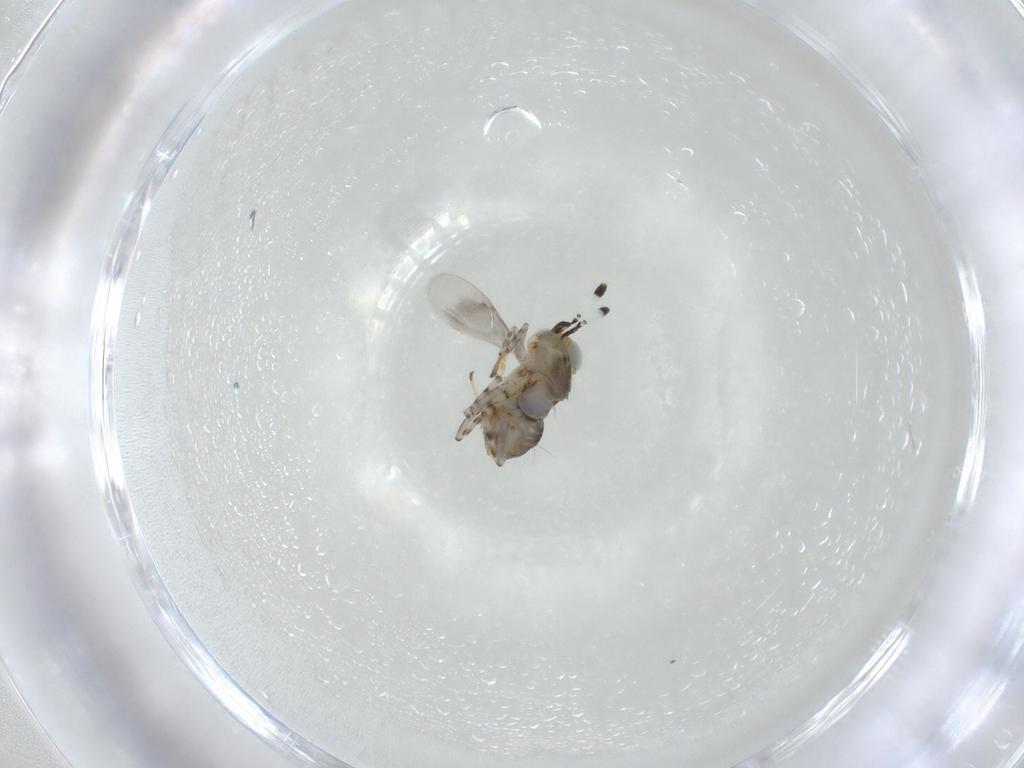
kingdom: Animalia
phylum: Arthropoda
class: Insecta
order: Hymenoptera
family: Encyrtidae
